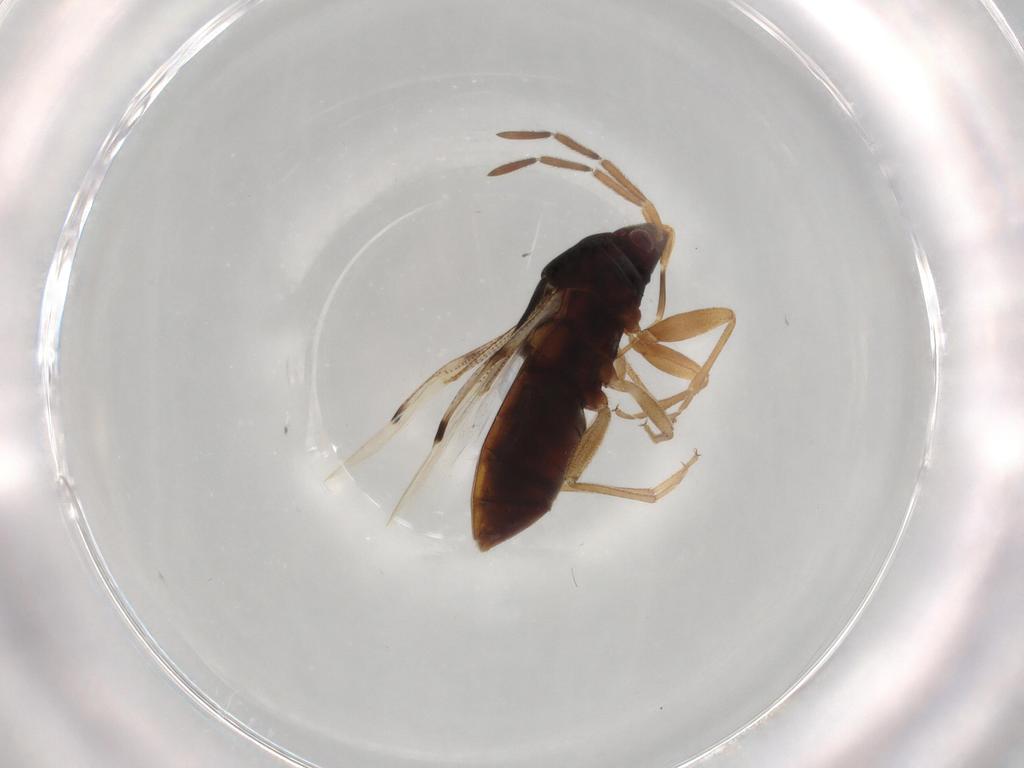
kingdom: Animalia
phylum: Arthropoda
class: Insecta
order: Hemiptera
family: Rhyparochromidae
